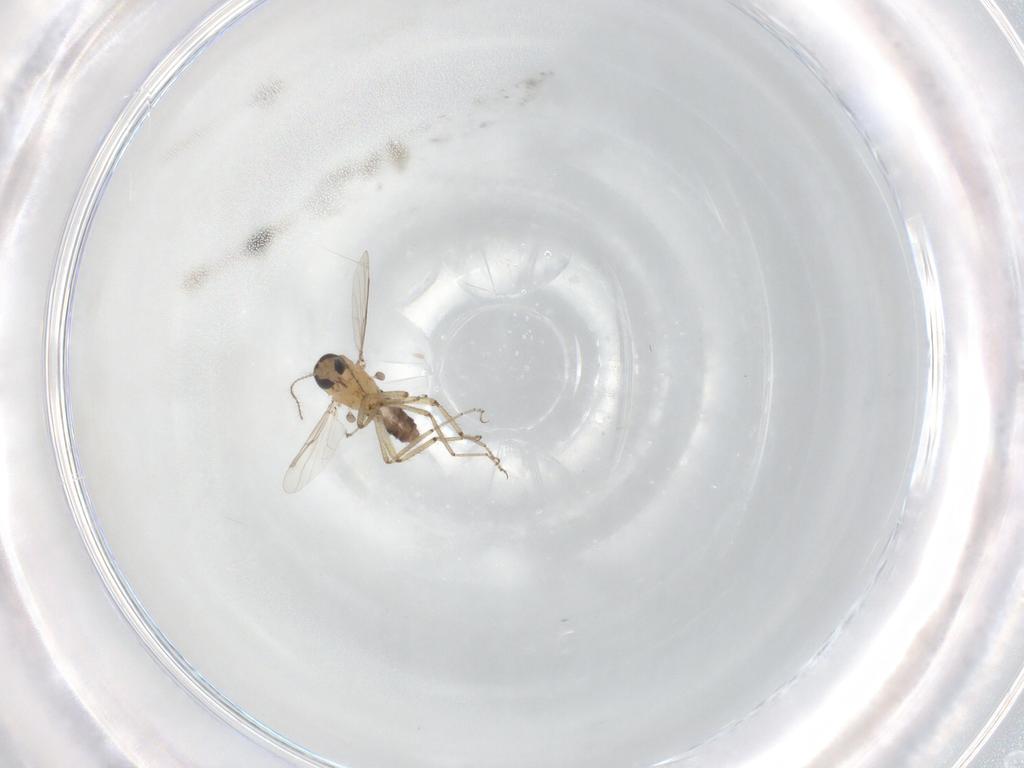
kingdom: Animalia
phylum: Arthropoda
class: Insecta
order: Diptera
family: Ceratopogonidae
